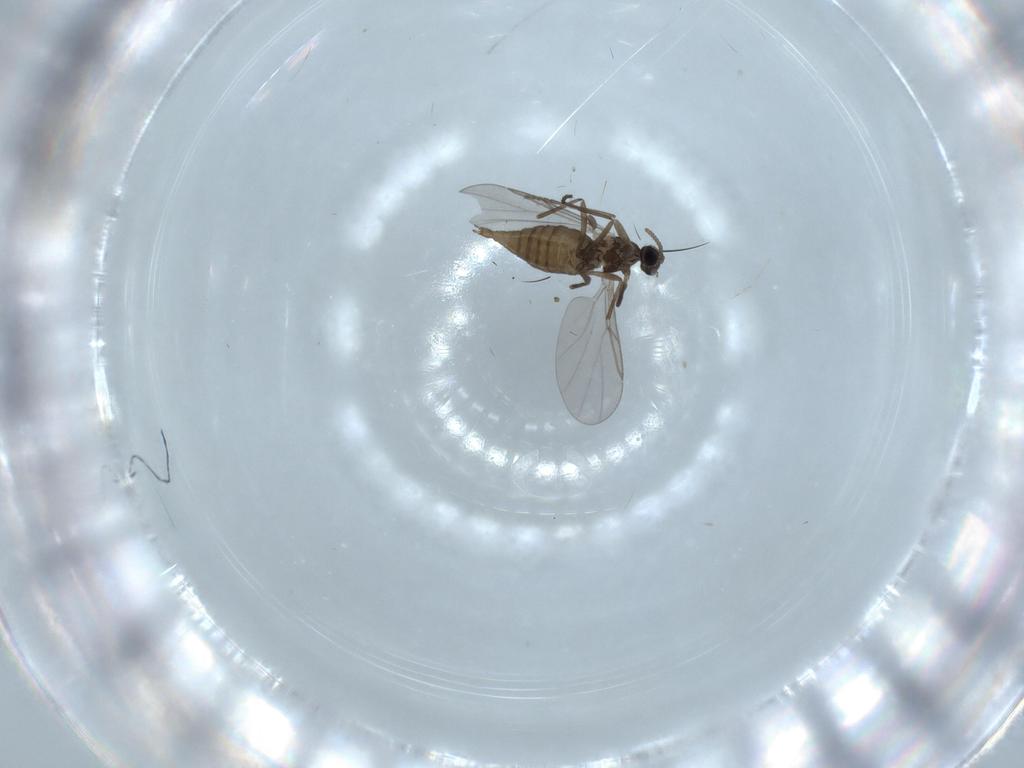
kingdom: Animalia
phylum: Arthropoda
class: Insecta
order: Diptera
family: Cecidomyiidae
